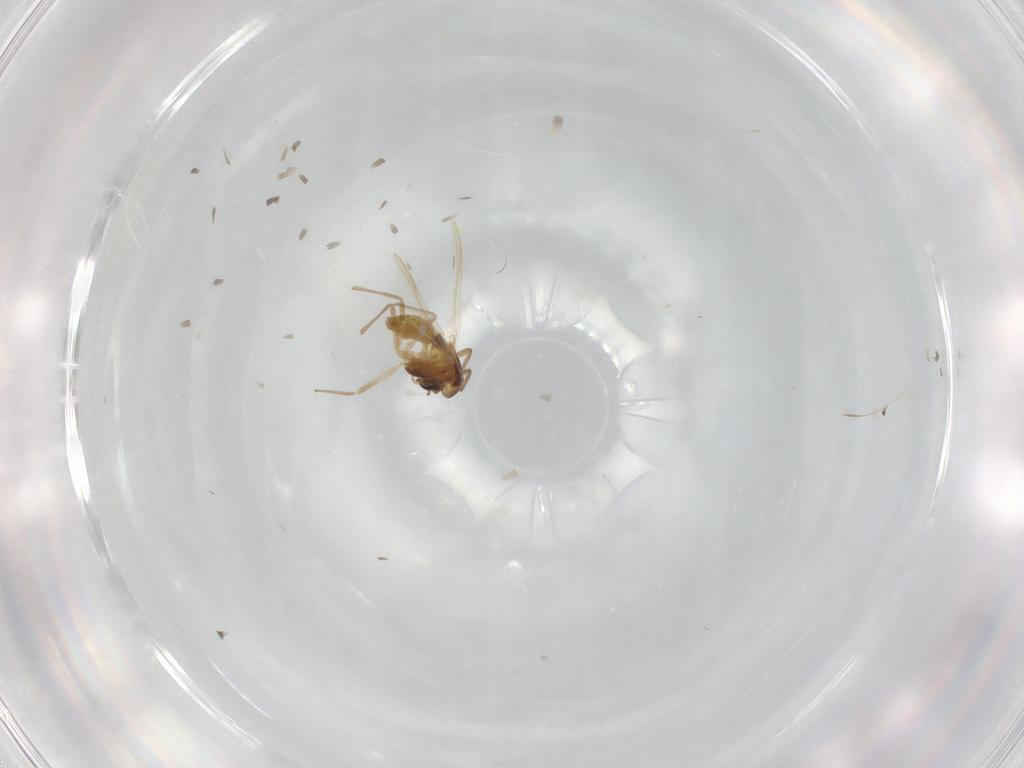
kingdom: Animalia
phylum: Arthropoda
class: Insecta
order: Diptera
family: Chironomidae
